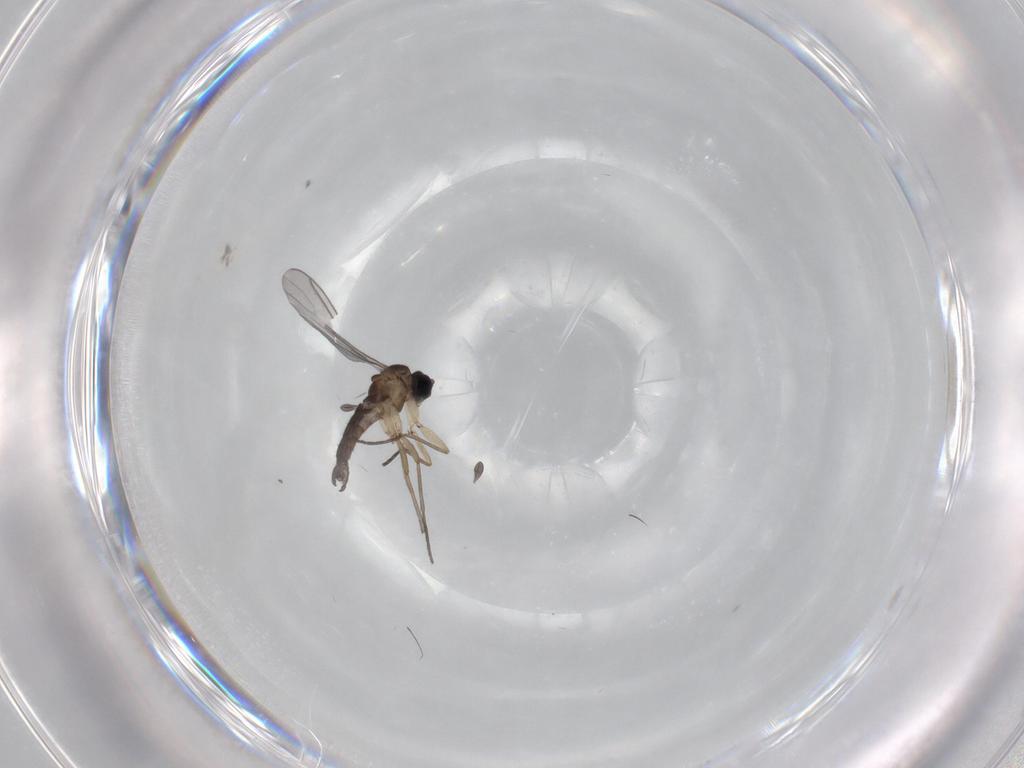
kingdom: Animalia
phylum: Arthropoda
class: Insecta
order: Diptera
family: Sciaridae
